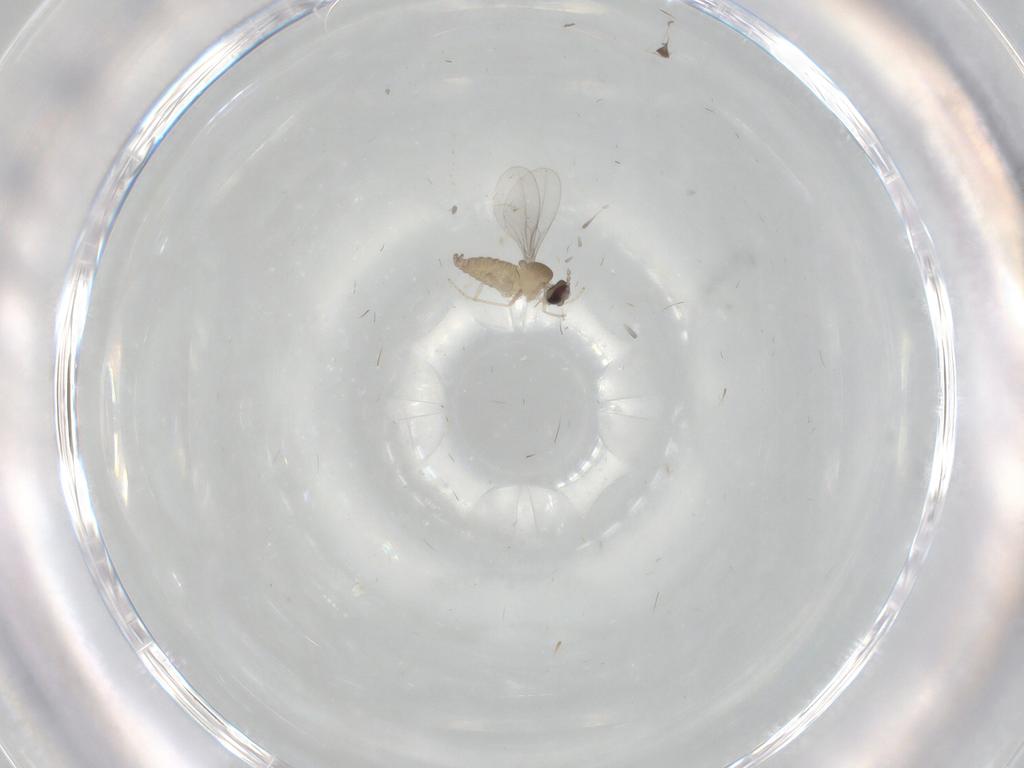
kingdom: Animalia
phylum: Arthropoda
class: Insecta
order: Diptera
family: Cecidomyiidae
